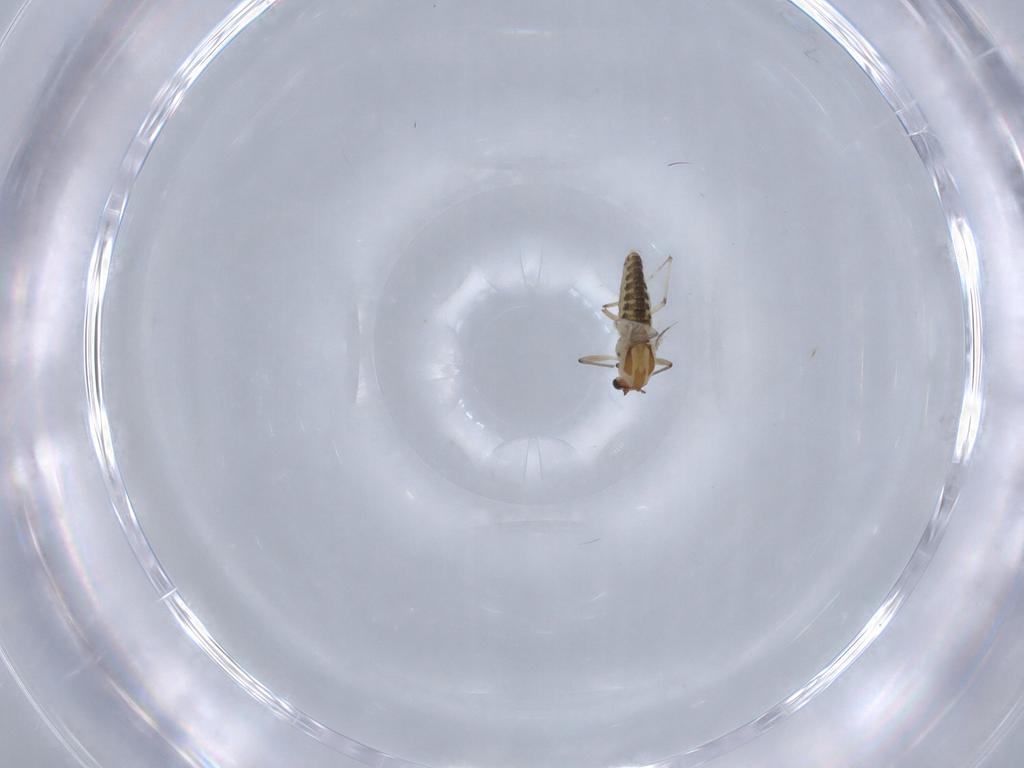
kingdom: Animalia
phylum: Arthropoda
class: Insecta
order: Diptera
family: Chironomidae
